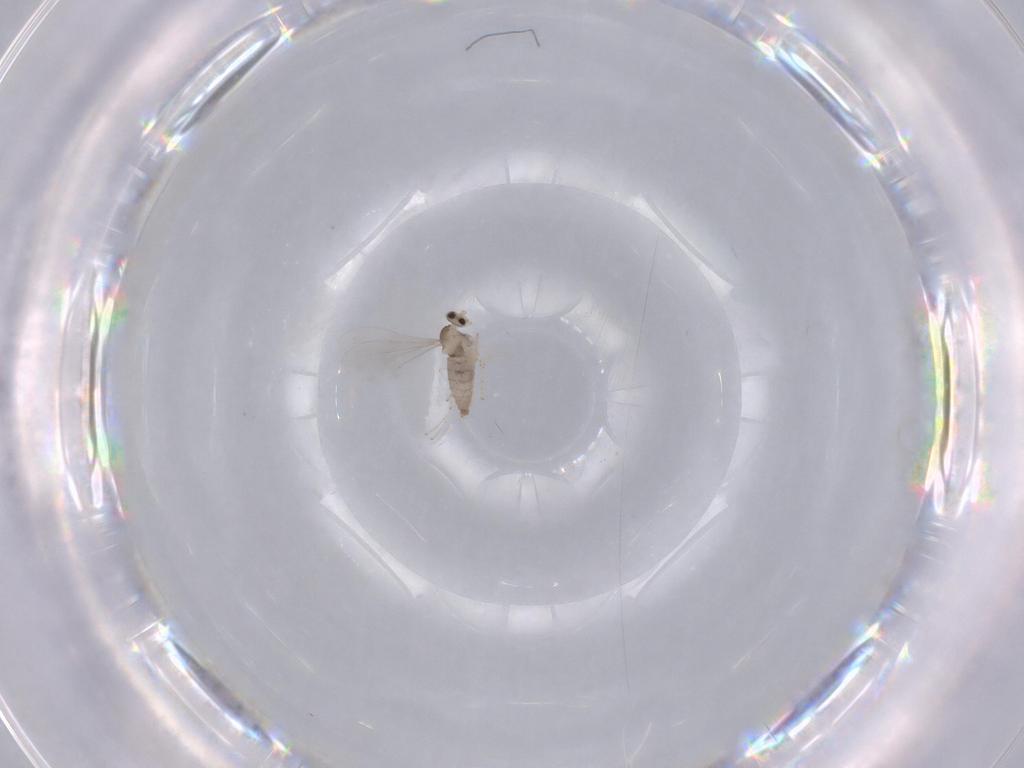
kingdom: Animalia
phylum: Arthropoda
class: Insecta
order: Diptera
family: Cecidomyiidae
